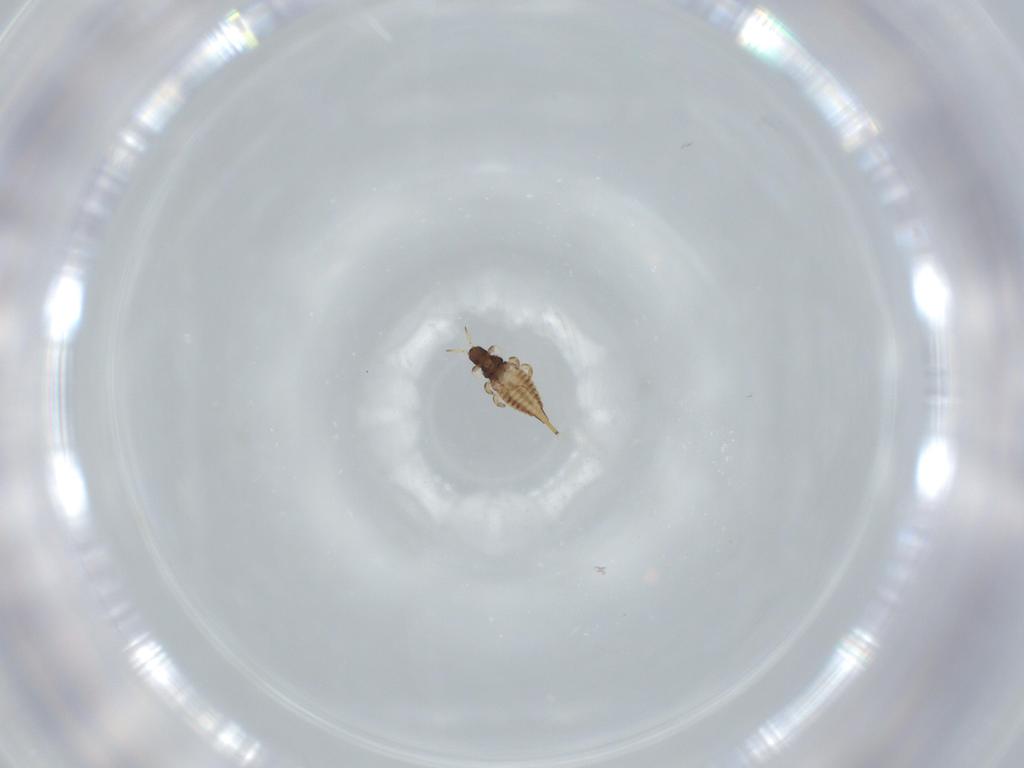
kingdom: Animalia
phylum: Arthropoda
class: Insecta
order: Thysanoptera
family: Phlaeothripidae
